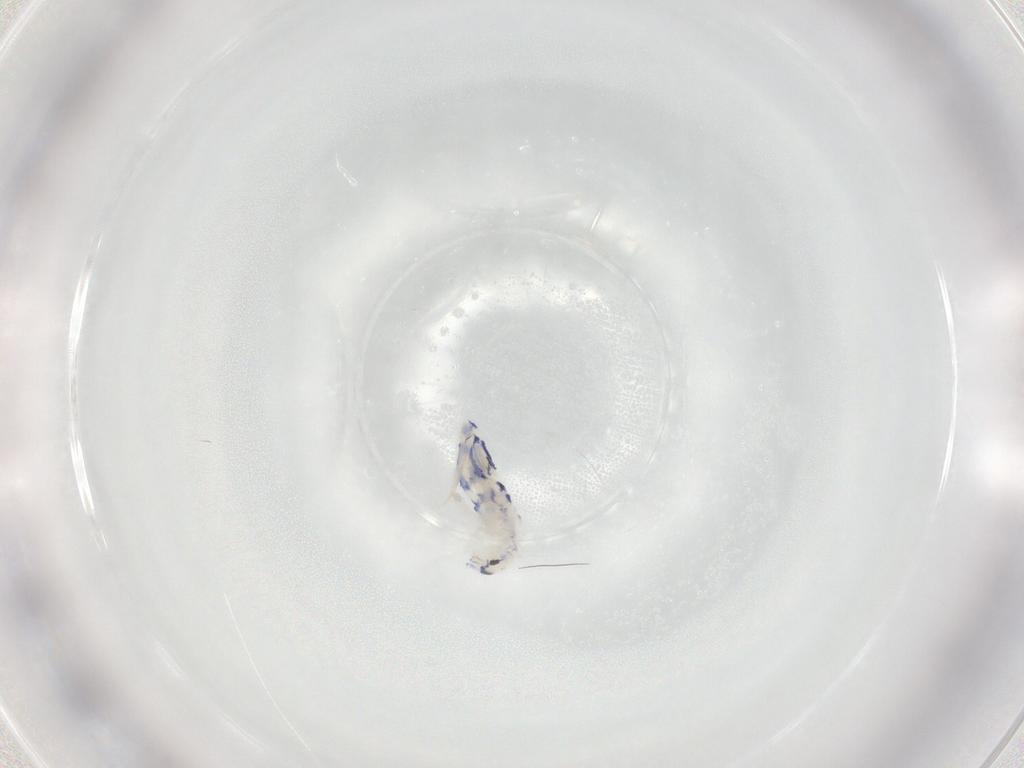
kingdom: Animalia
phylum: Arthropoda
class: Collembola
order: Entomobryomorpha
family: Entomobryidae
